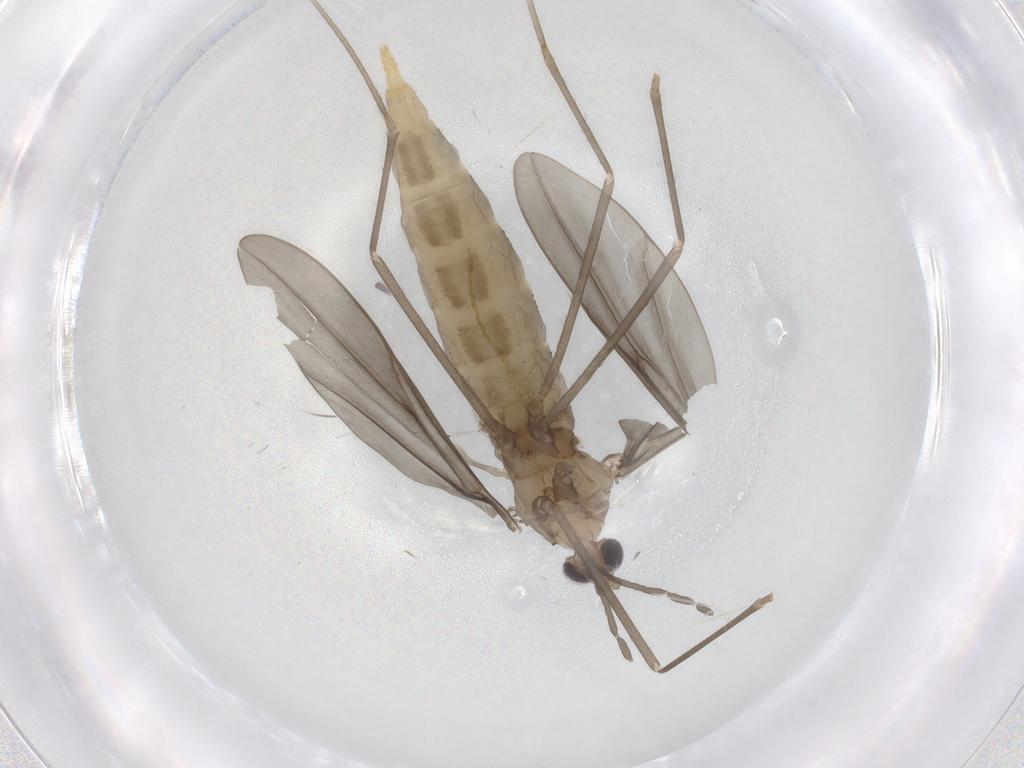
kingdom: Animalia
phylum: Arthropoda
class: Insecta
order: Diptera
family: Cecidomyiidae
